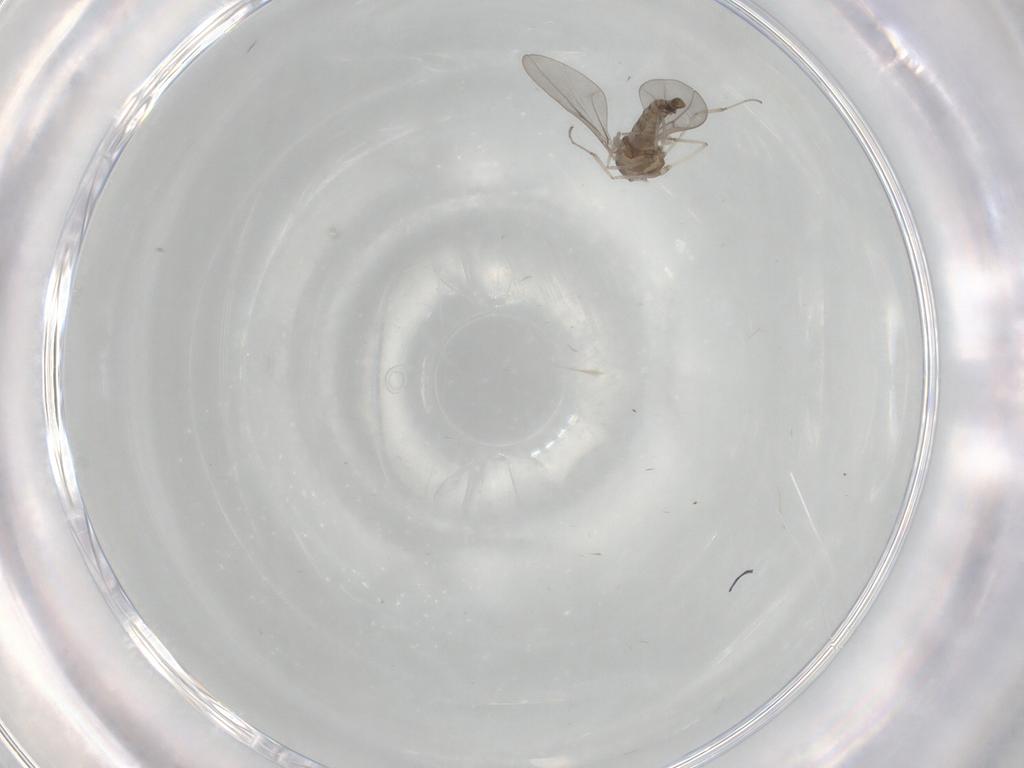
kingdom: Animalia
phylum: Arthropoda
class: Insecta
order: Diptera
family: Cecidomyiidae
